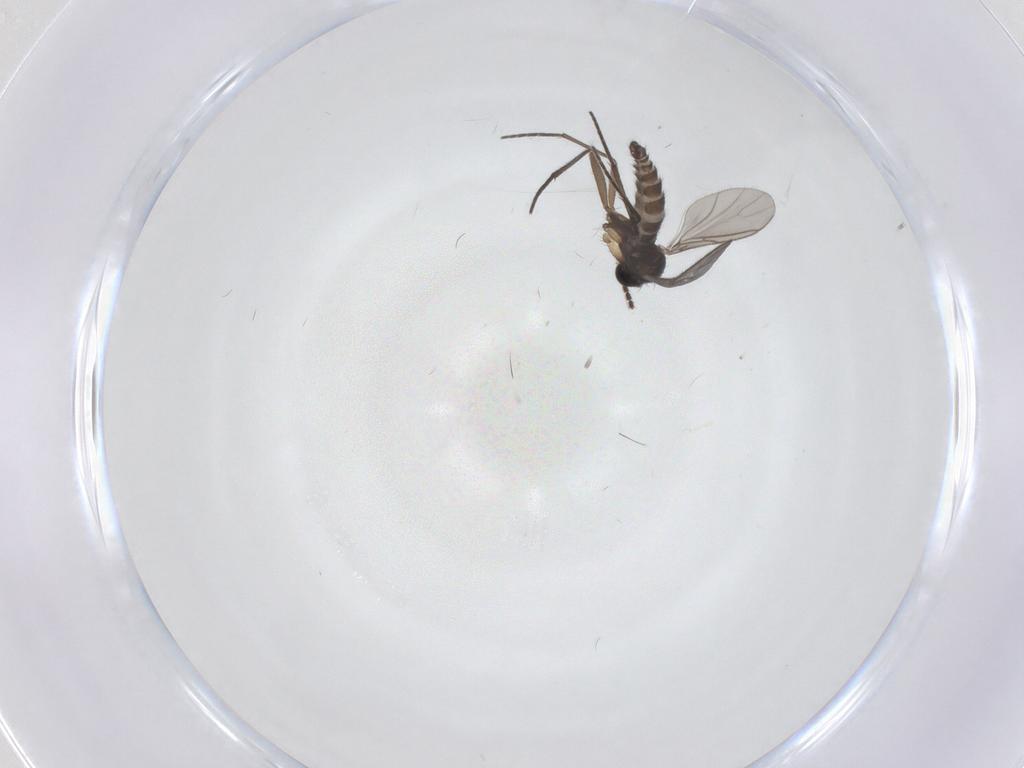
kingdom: Animalia
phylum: Arthropoda
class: Insecta
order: Diptera
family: Sciaridae
